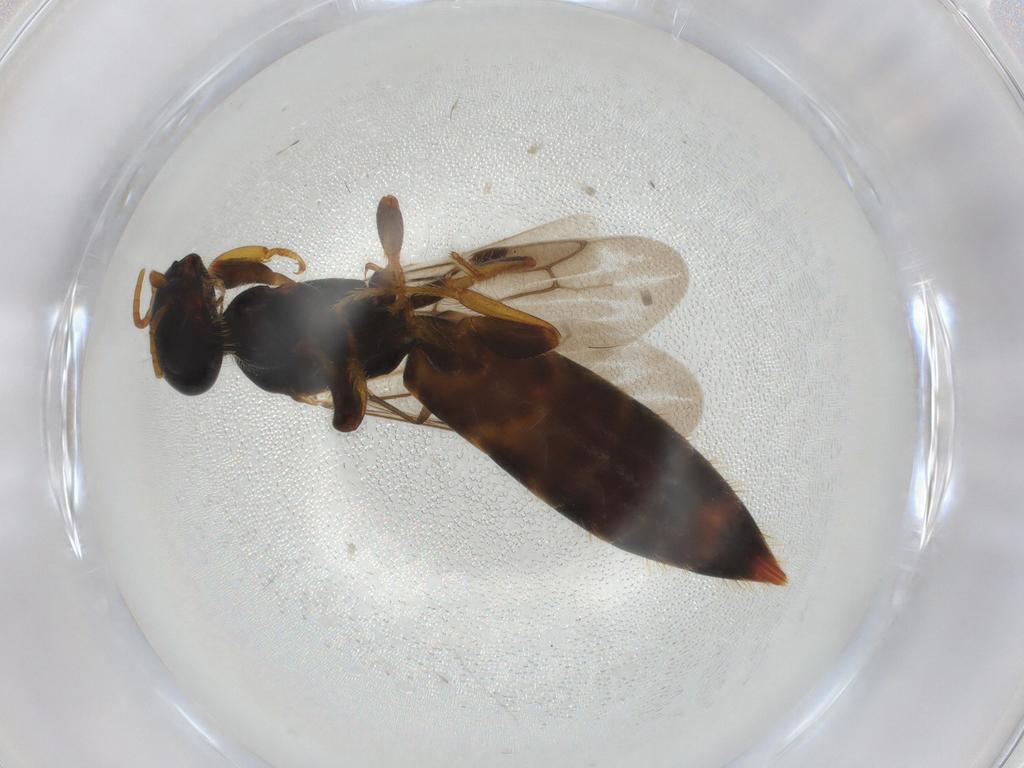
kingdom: Animalia
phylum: Arthropoda
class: Insecta
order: Hymenoptera
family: Scolebythidae
